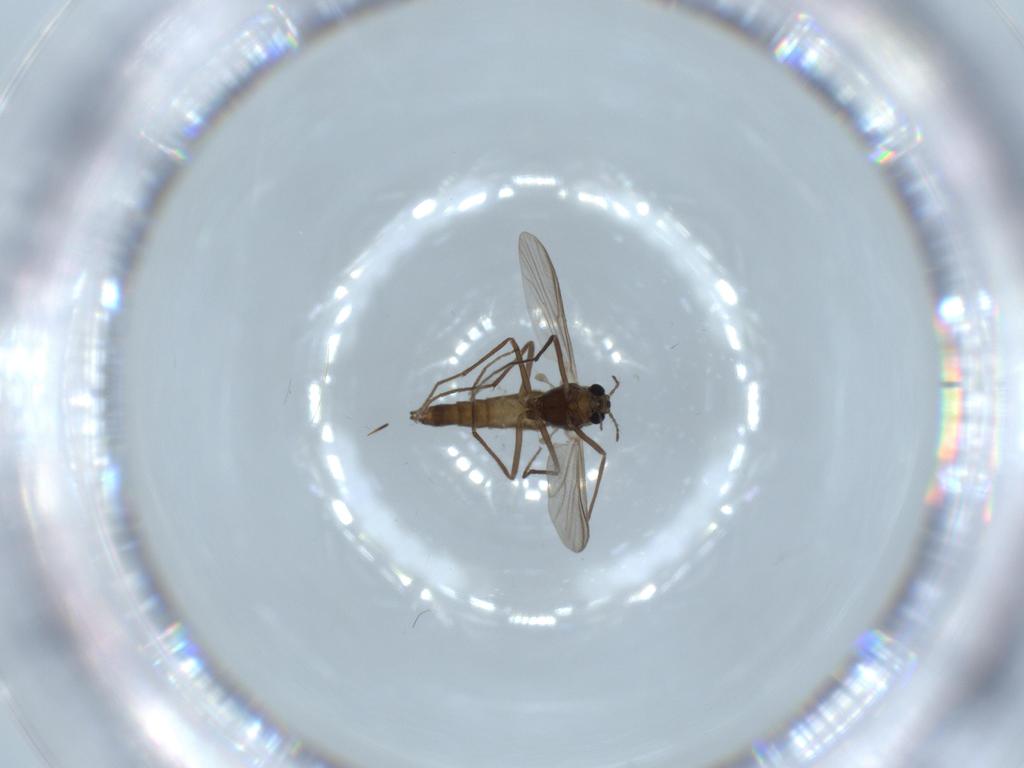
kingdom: Animalia
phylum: Arthropoda
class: Insecta
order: Diptera
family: Chironomidae
